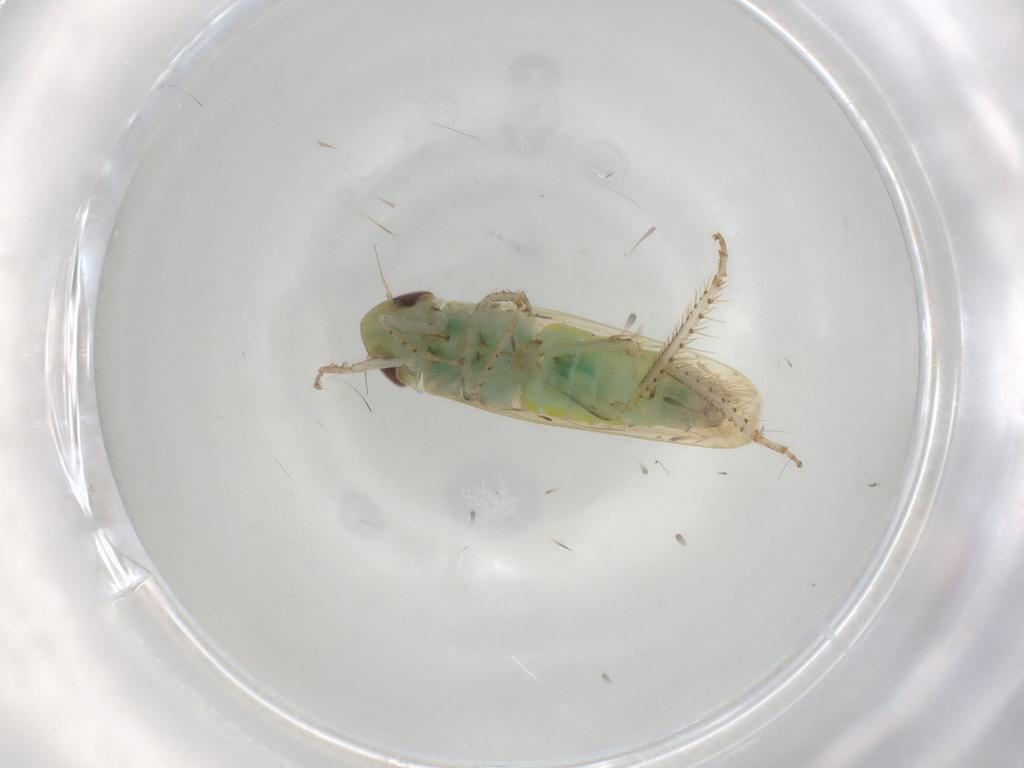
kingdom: Animalia
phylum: Arthropoda
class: Insecta
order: Hemiptera
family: Cicadellidae
